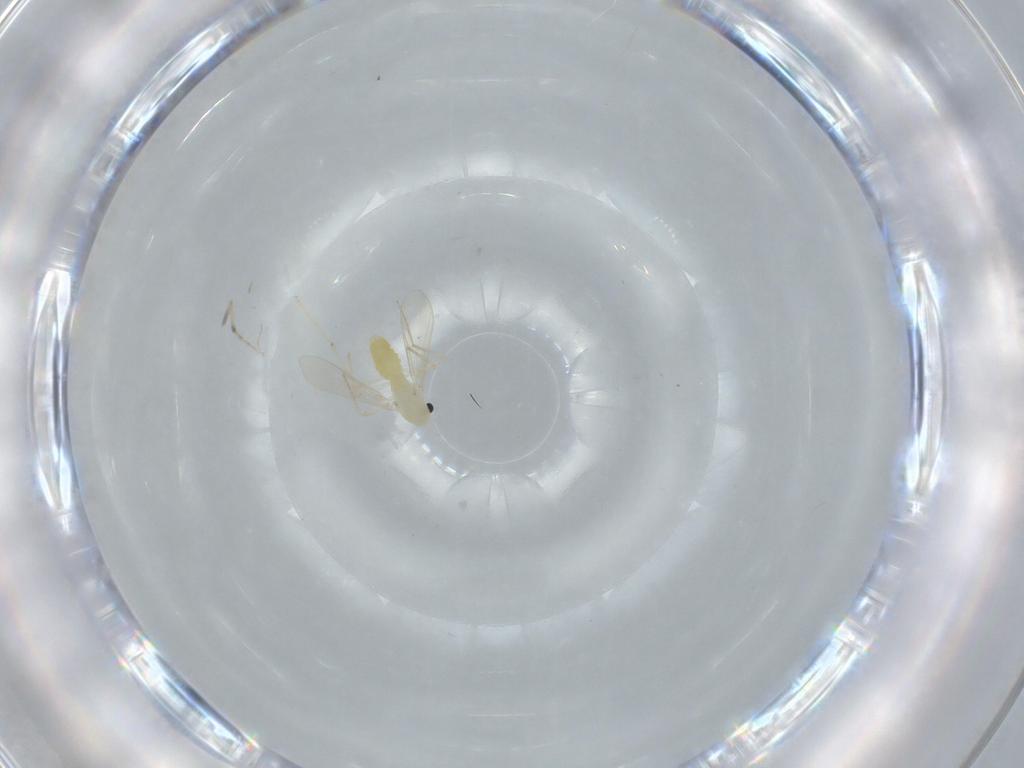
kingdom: Animalia
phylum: Arthropoda
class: Insecta
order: Diptera
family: Chironomidae
